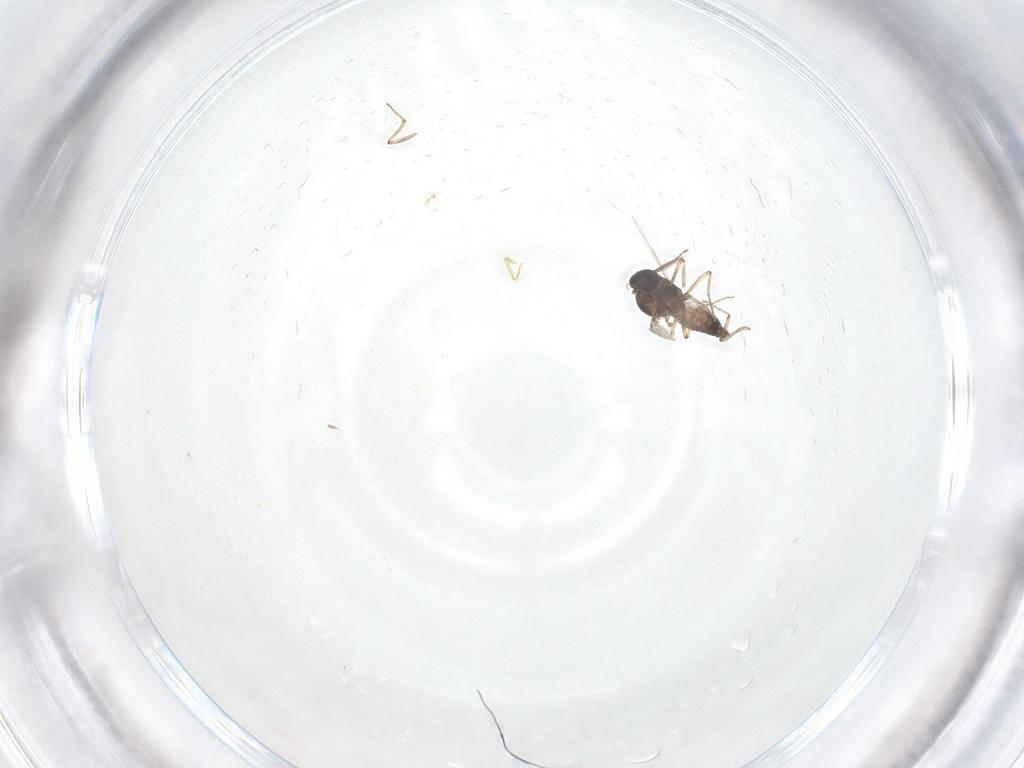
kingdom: Animalia
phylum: Arthropoda
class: Insecta
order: Diptera
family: Ceratopogonidae
